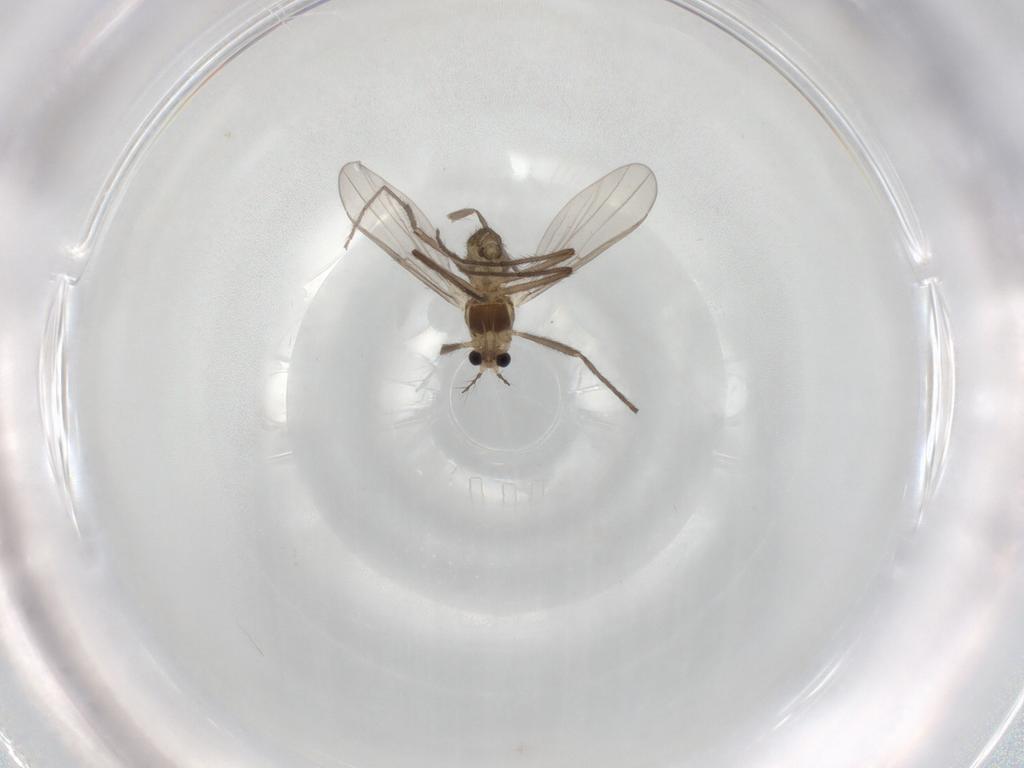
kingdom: Animalia
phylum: Arthropoda
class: Insecta
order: Diptera
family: Chironomidae
